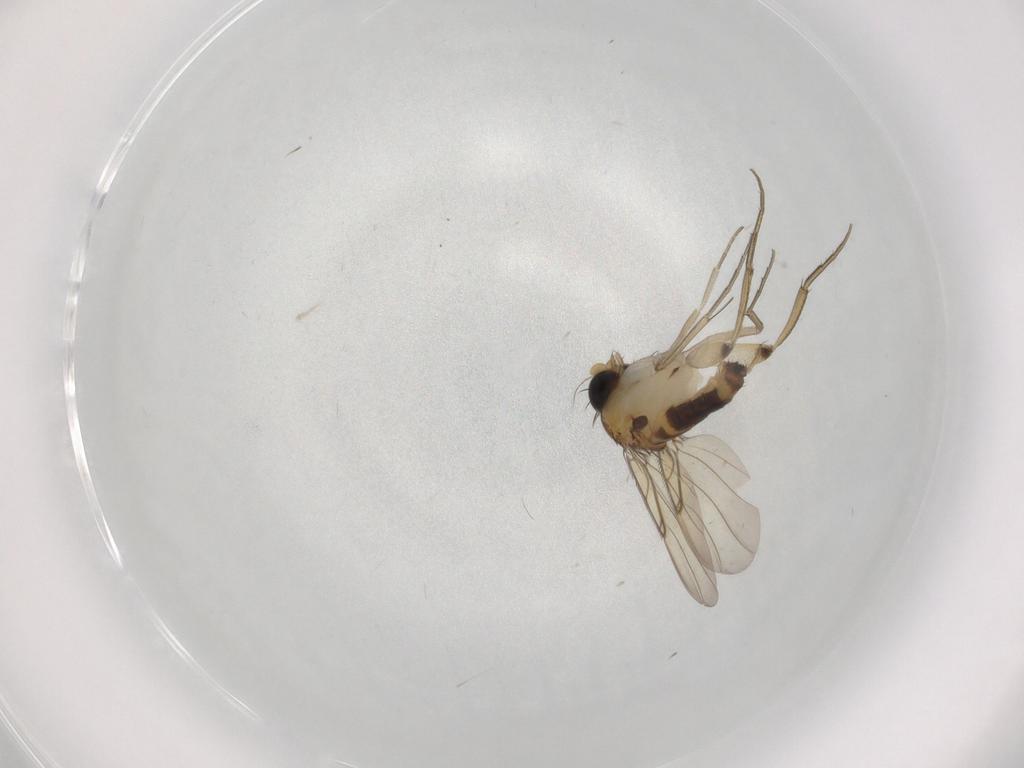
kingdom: Animalia
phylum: Arthropoda
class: Insecta
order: Diptera
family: Phoridae
